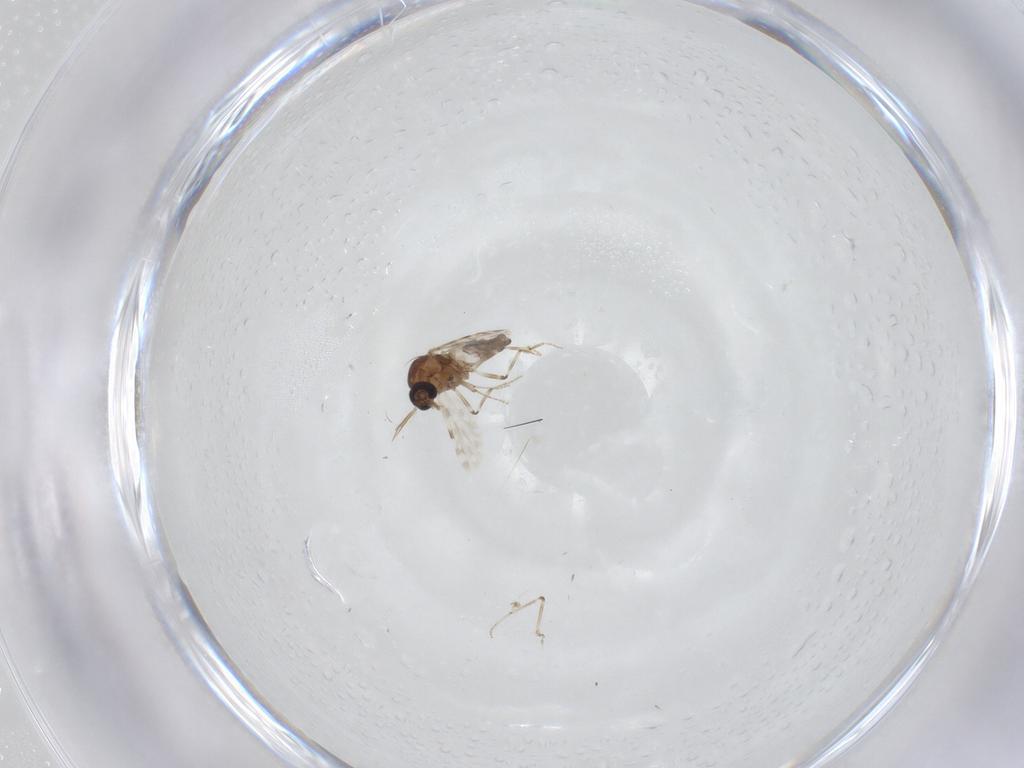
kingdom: Animalia
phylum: Arthropoda
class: Insecta
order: Diptera
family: Ceratopogonidae
